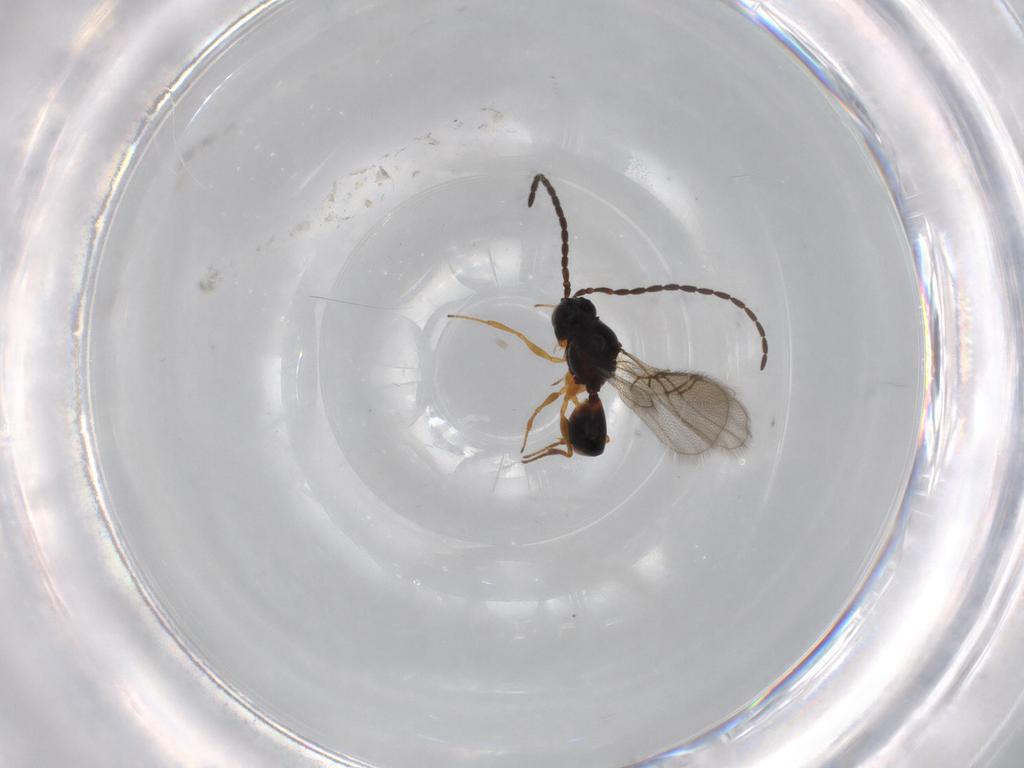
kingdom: Animalia
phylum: Arthropoda
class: Insecta
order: Hymenoptera
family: Figitidae
